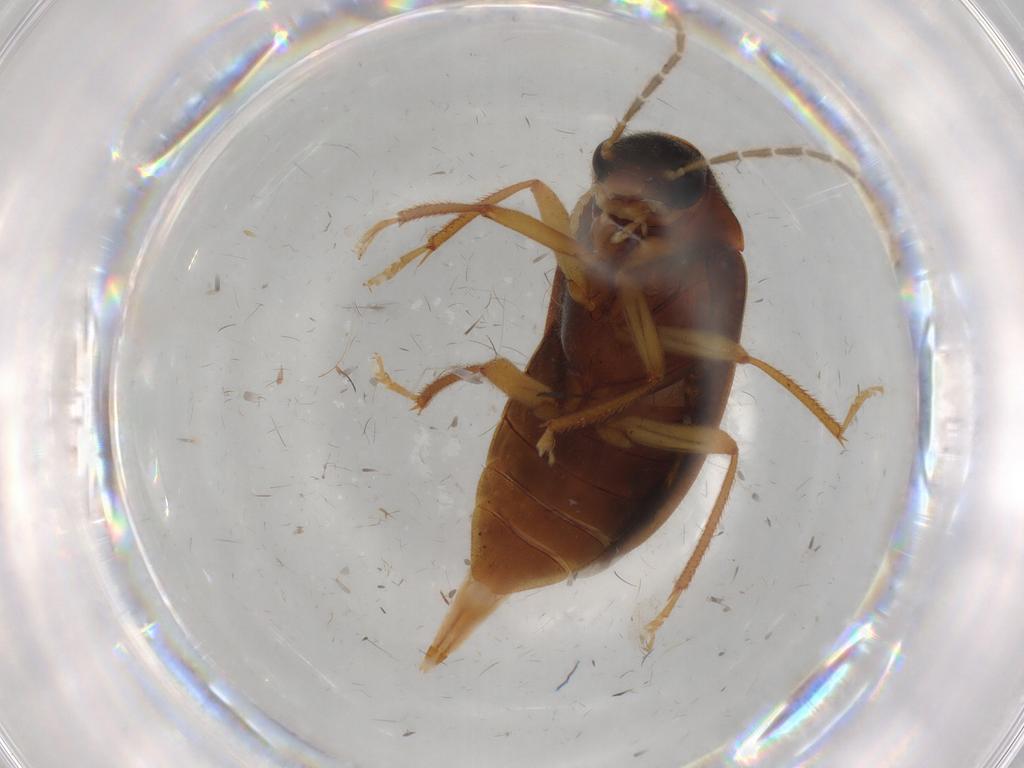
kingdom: Animalia
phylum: Arthropoda
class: Insecta
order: Coleoptera
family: Ptilodactylidae
